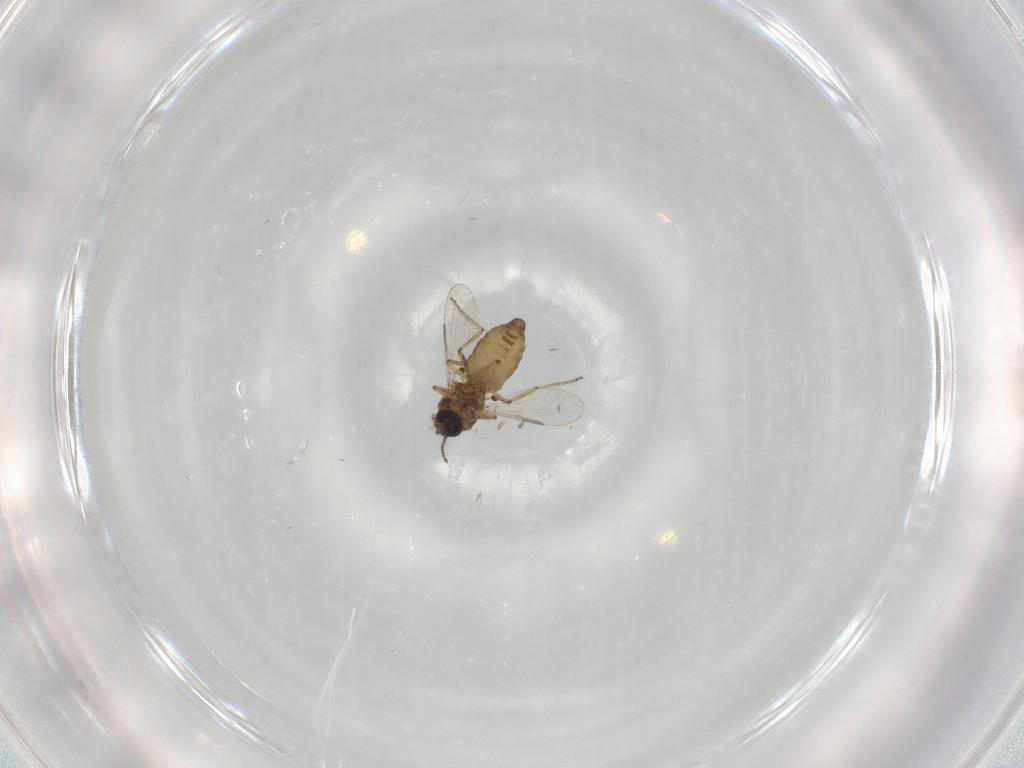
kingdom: Animalia
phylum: Arthropoda
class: Insecta
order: Diptera
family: Ceratopogonidae
